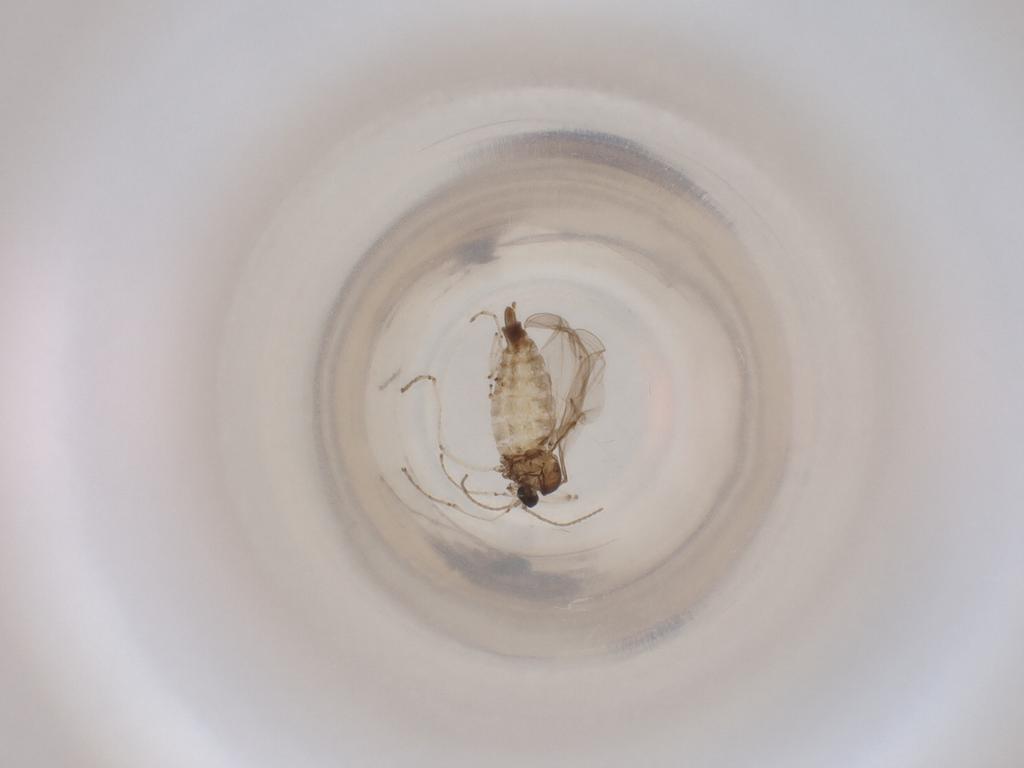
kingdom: Animalia
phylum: Arthropoda
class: Insecta
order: Diptera
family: Cecidomyiidae
